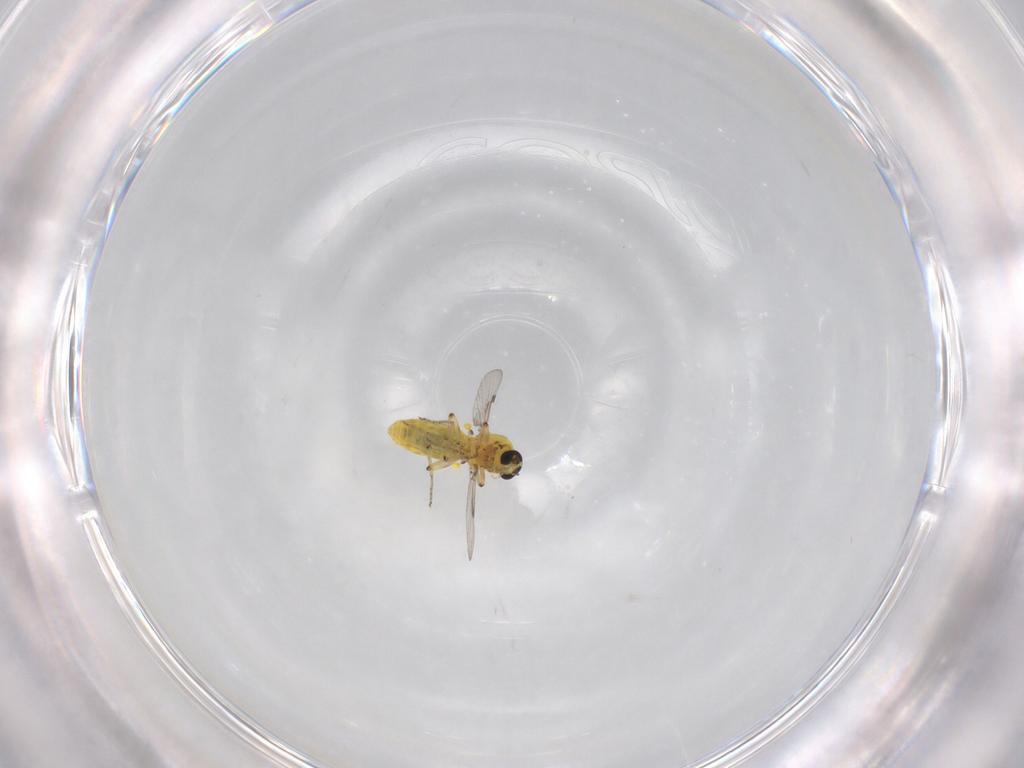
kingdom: Animalia
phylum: Arthropoda
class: Insecta
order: Diptera
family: Ceratopogonidae
